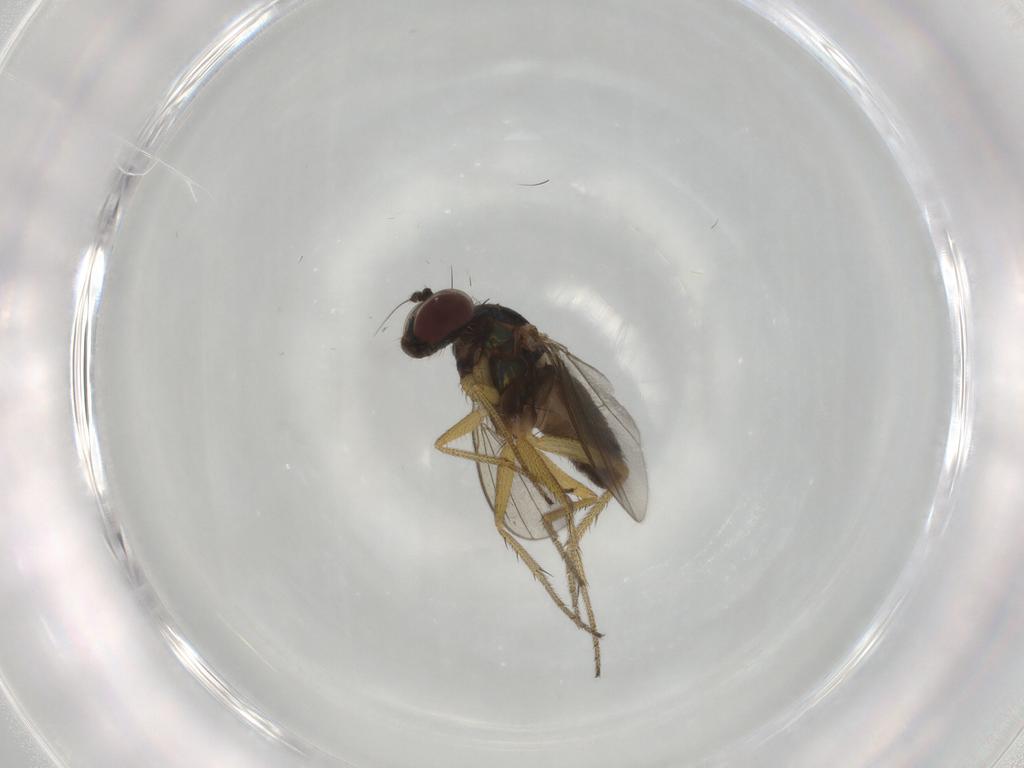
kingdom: Animalia
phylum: Arthropoda
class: Insecta
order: Diptera
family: Dolichopodidae
